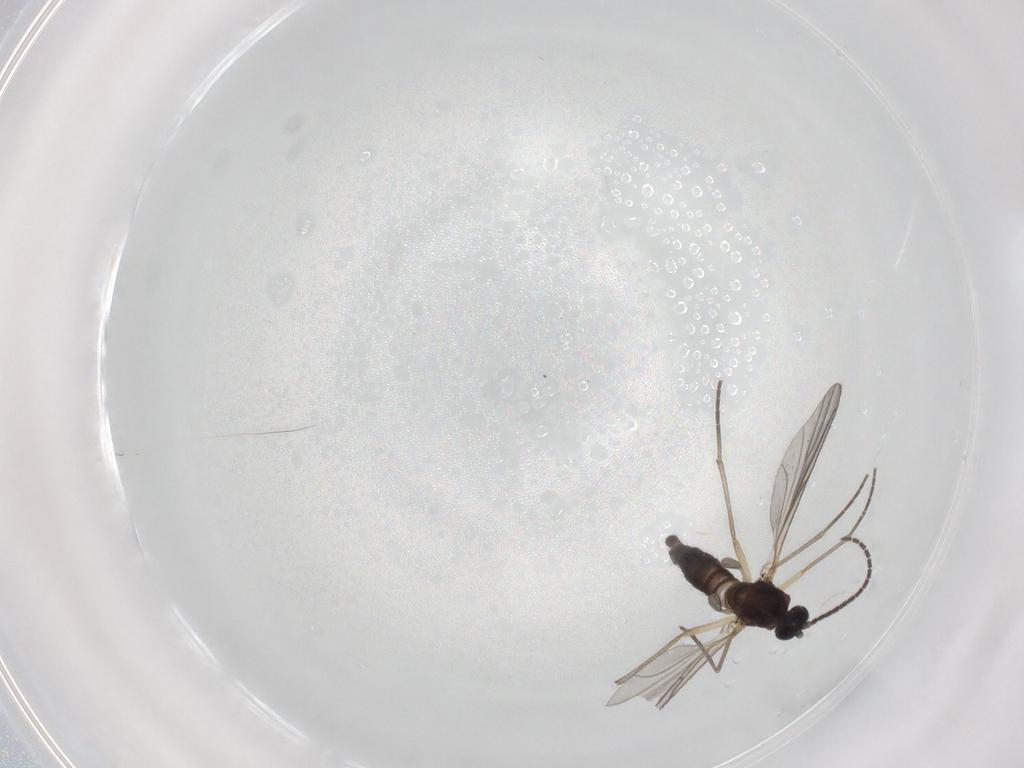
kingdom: Animalia
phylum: Arthropoda
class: Insecta
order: Diptera
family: Sciaridae
